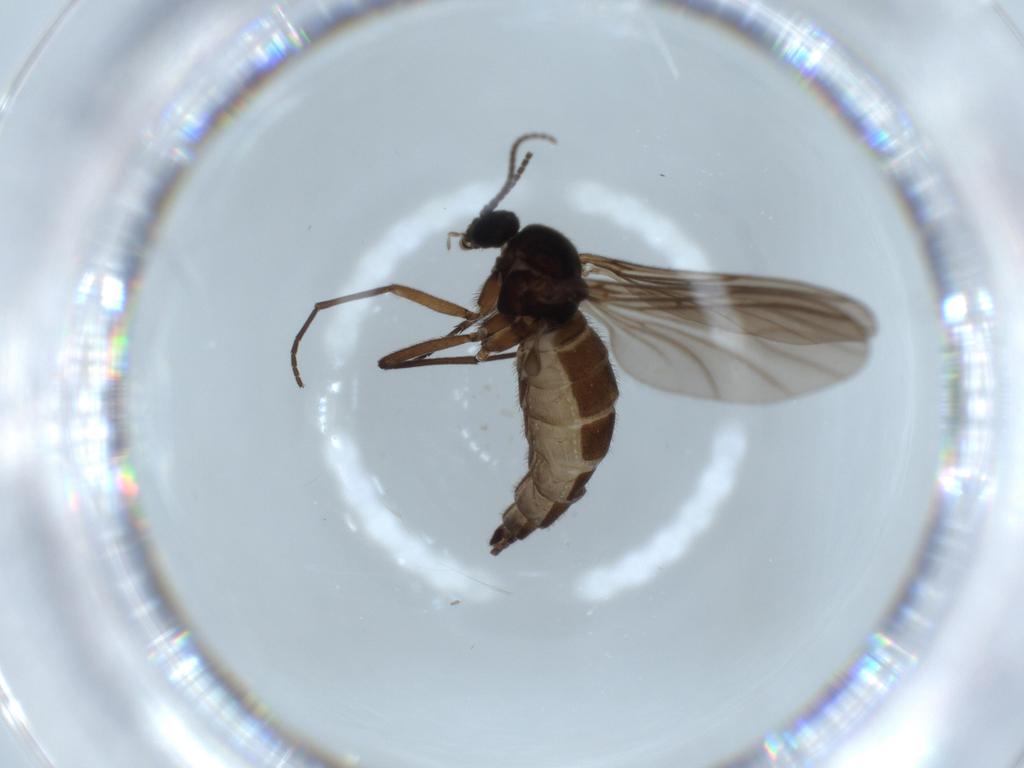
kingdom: Animalia
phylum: Arthropoda
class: Insecta
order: Diptera
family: Sciaridae
